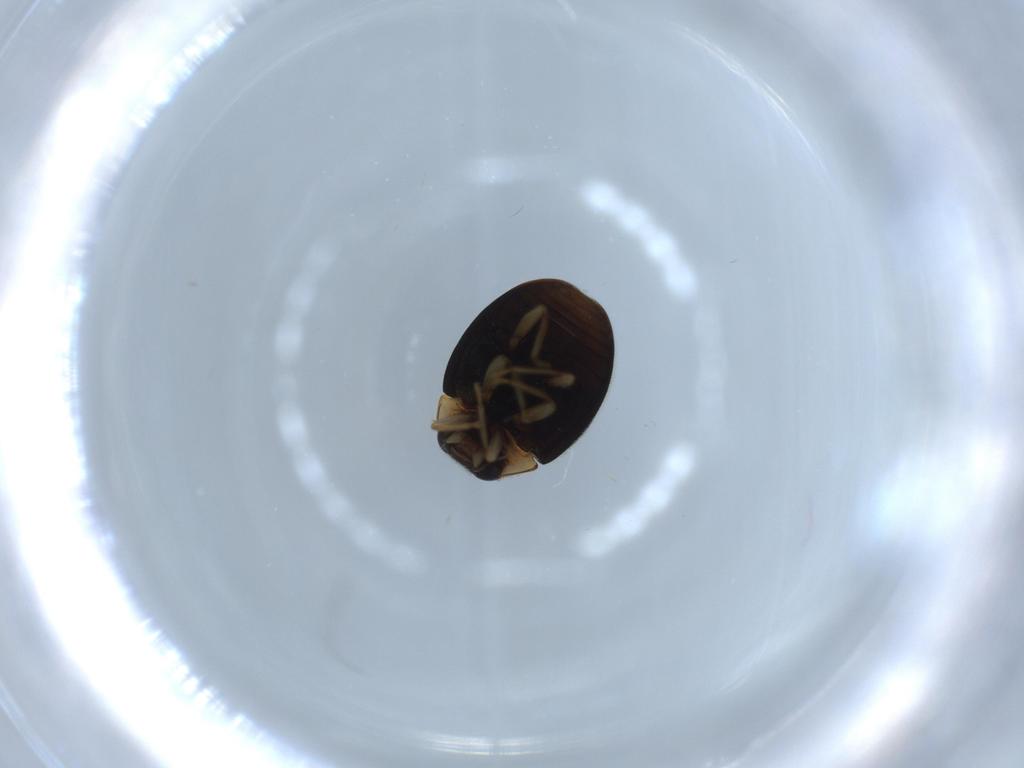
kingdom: Animalia
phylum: Arthropoda
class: Insecta
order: Coleoptera
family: Curculionidae
